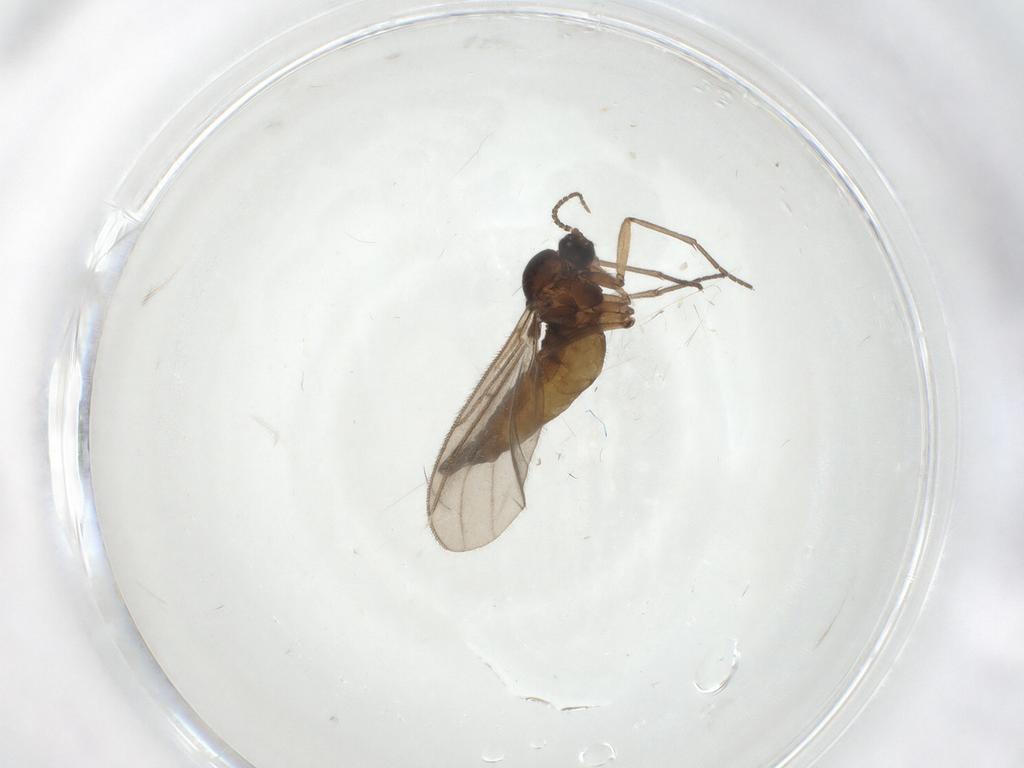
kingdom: Animalia
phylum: Arthropoda
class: Insecta
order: Diptera
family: Sciaridae
